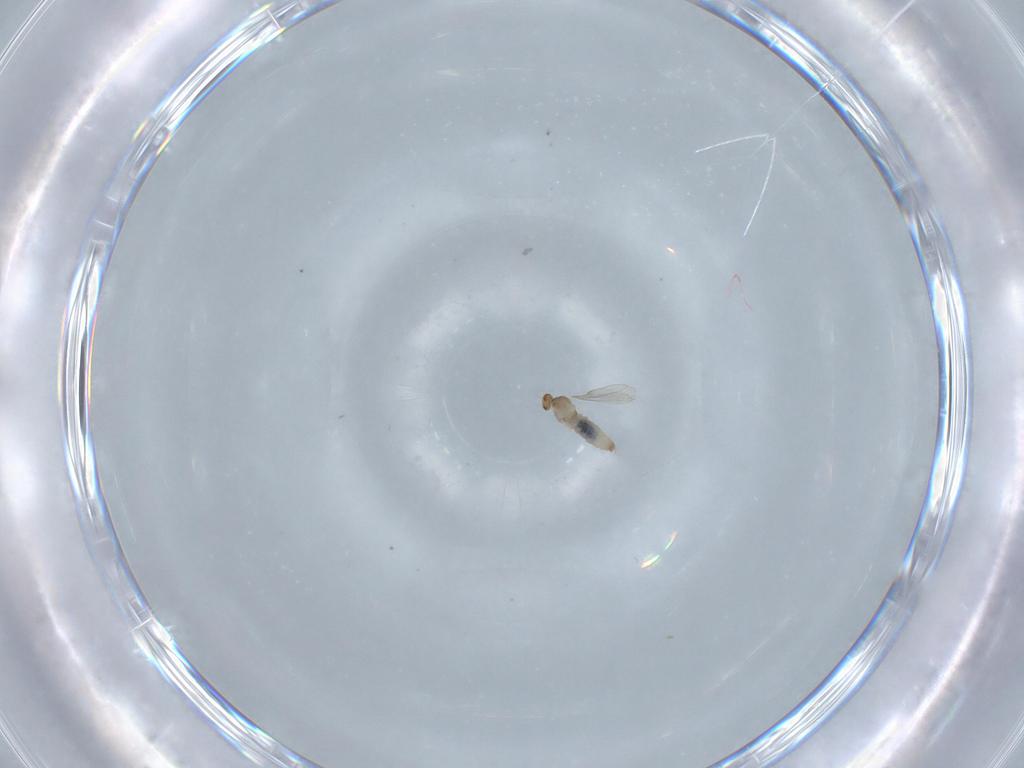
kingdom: Animalia
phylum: Arthropoda
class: Insecta
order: Diptera
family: Cecidomyiidae
